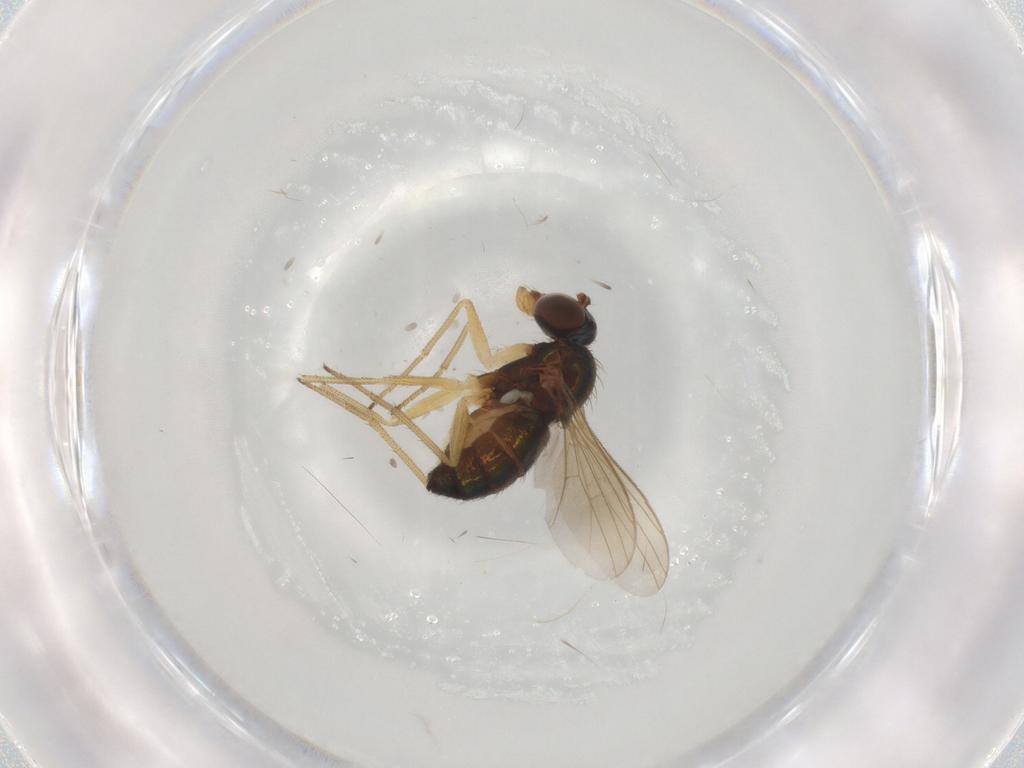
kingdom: Animalia
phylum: Arthropoda
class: Insecta
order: Diptera
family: Dolichopodidae
